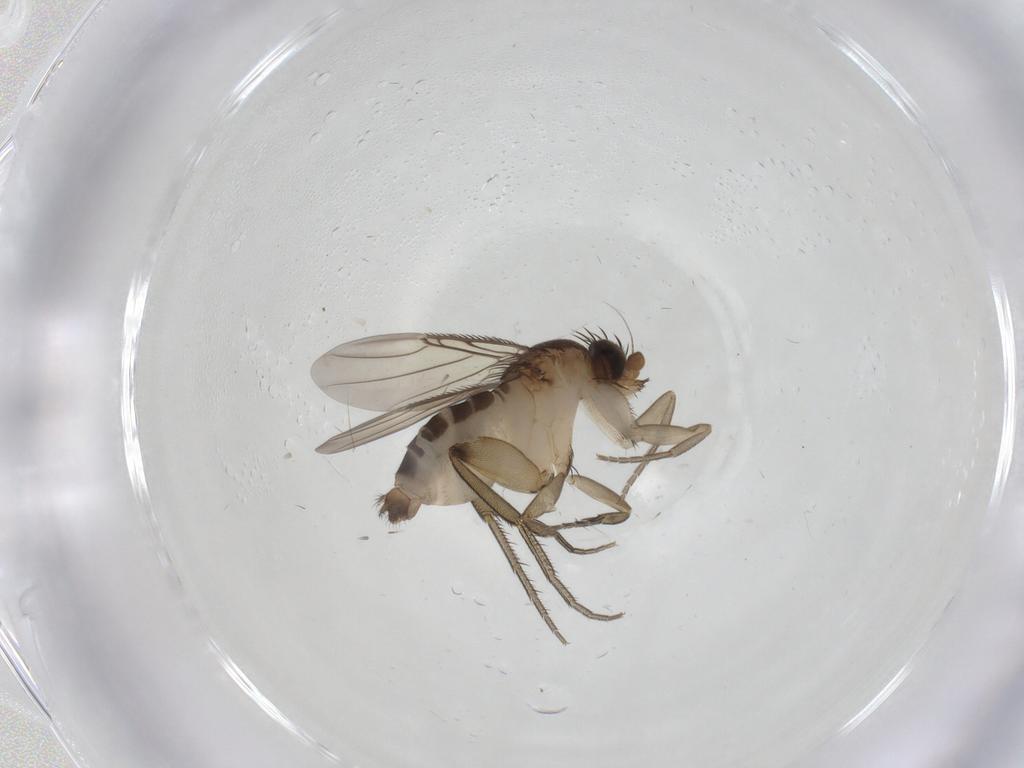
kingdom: Animalia
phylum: Arthropoda
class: Insecta
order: Diptera
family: Phoridae
